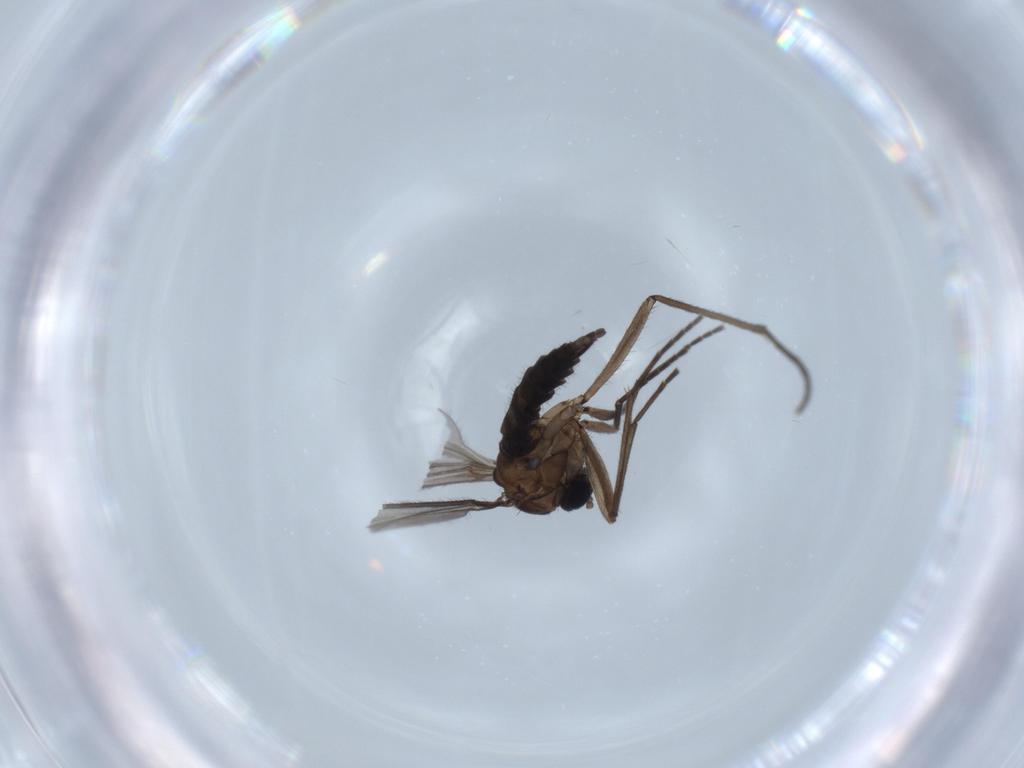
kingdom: Animalia
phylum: Arthropoda
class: Insecta
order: Diptera
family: Sciaridae
